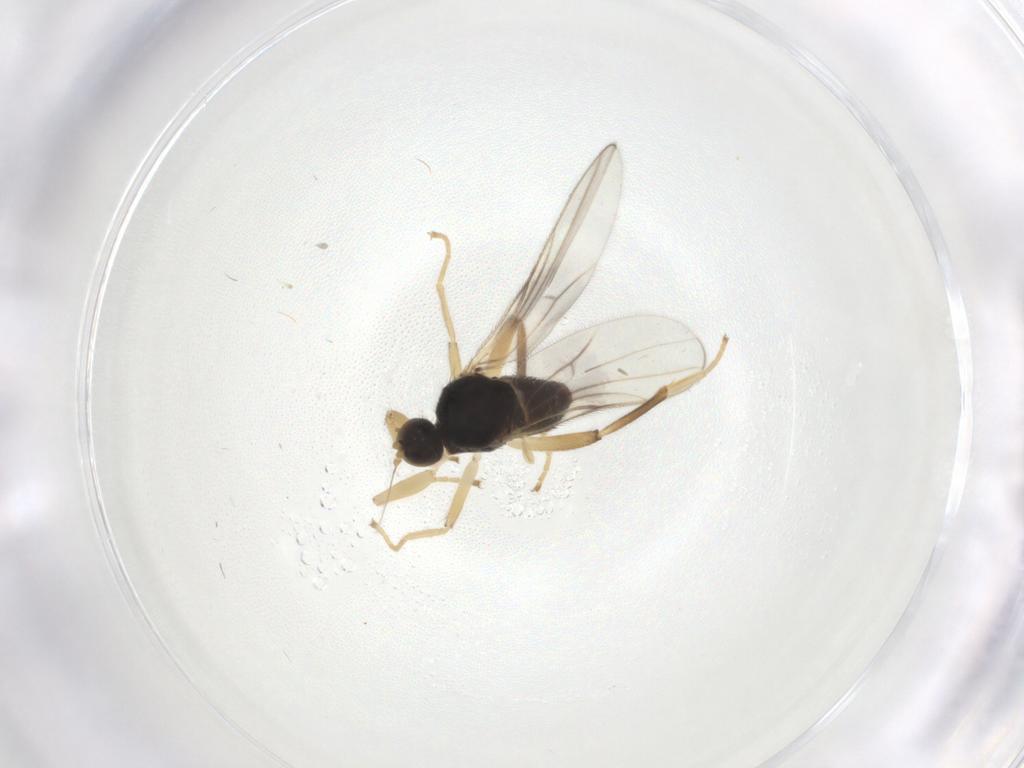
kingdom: Animalia
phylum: Arthropoda
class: Insecta
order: Diptera
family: Hybotidae
